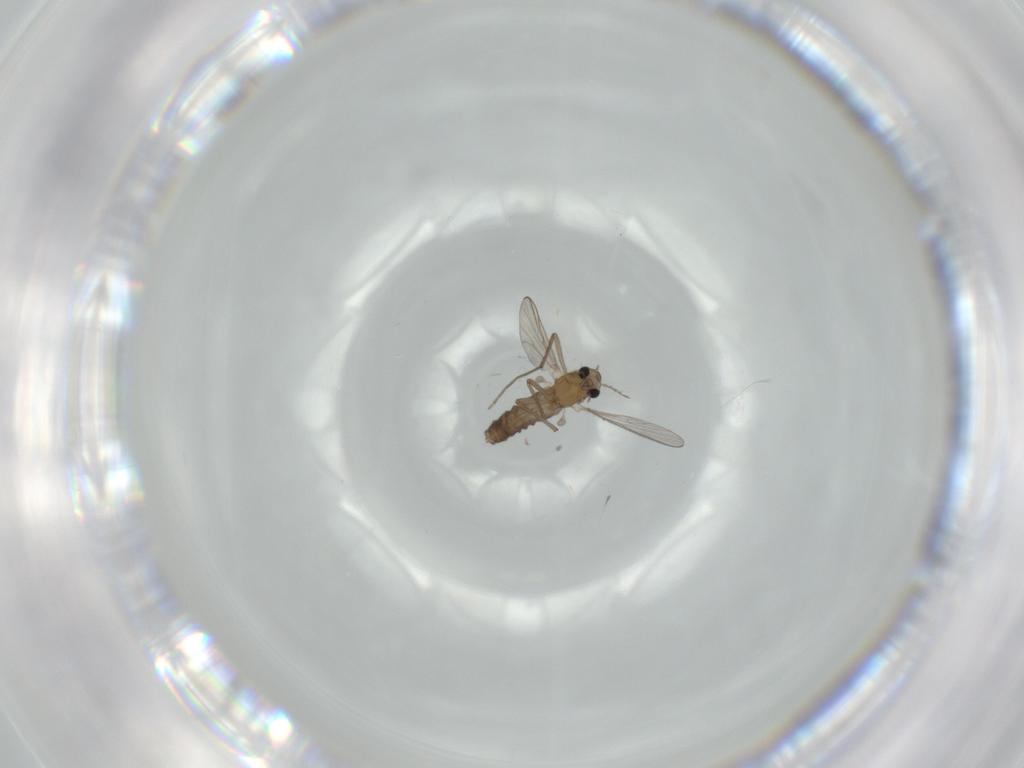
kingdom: Animalia
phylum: Arthropoda
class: Insecta
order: Diptera
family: Chironomidae
